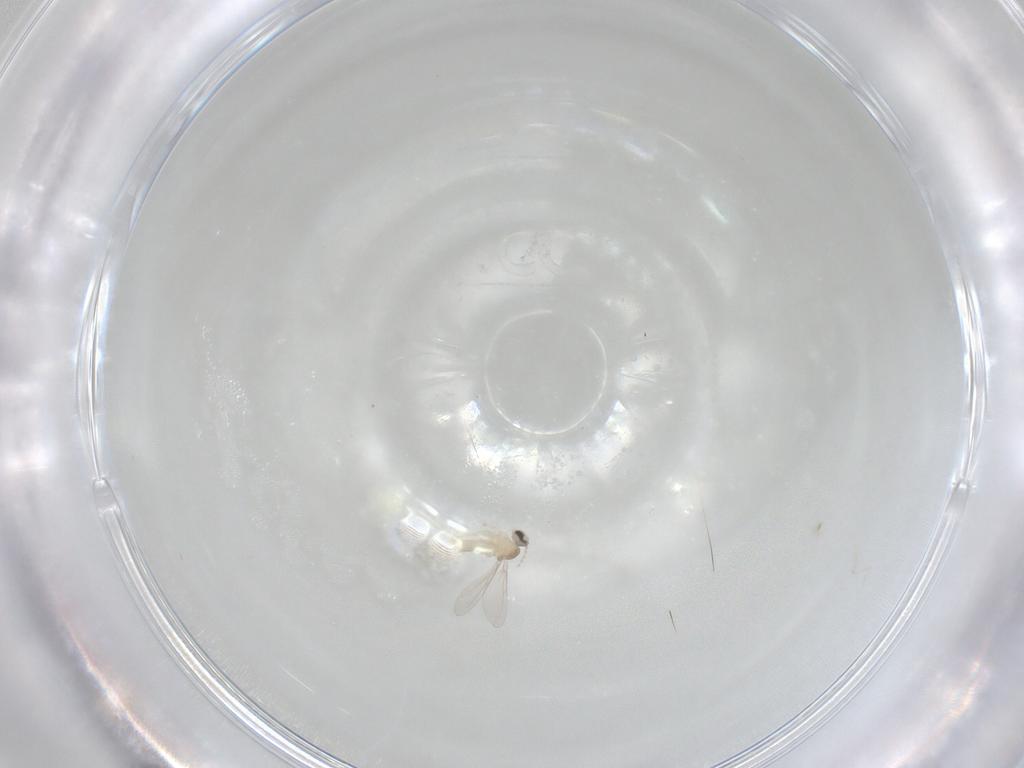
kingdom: Animalia
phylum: Arthropoda
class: Insecta
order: Diptera
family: Cecidomyiidae
